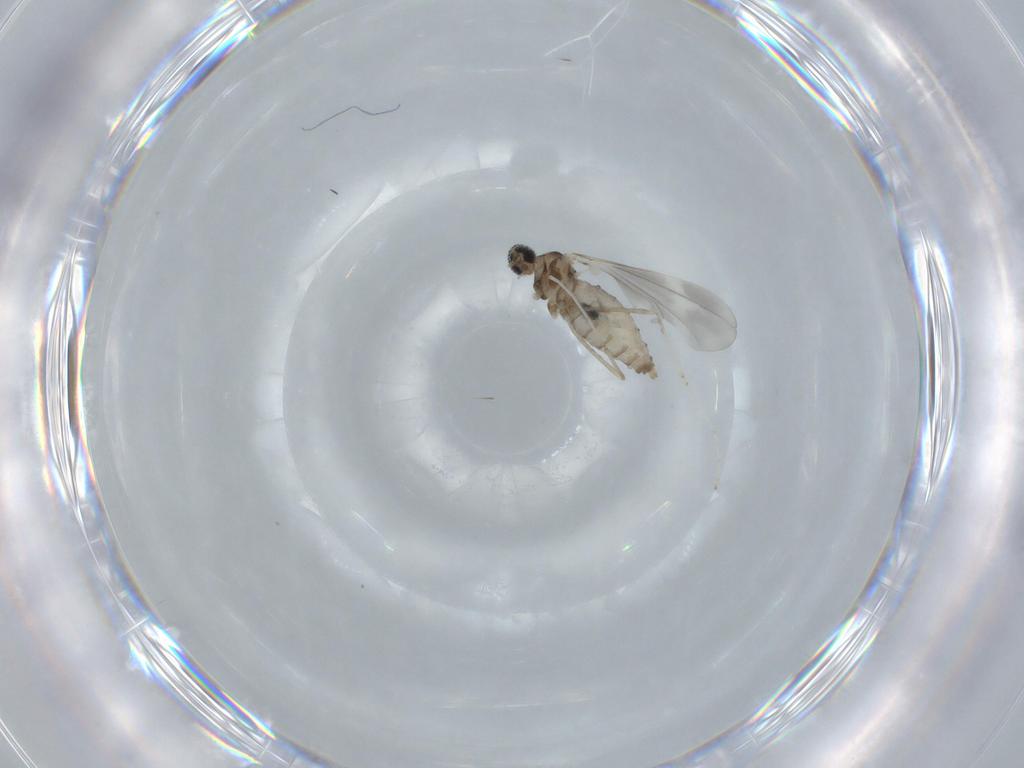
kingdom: Animalia
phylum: Arthropoda
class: Insecta
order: Diptera
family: Cecidomyiidae
